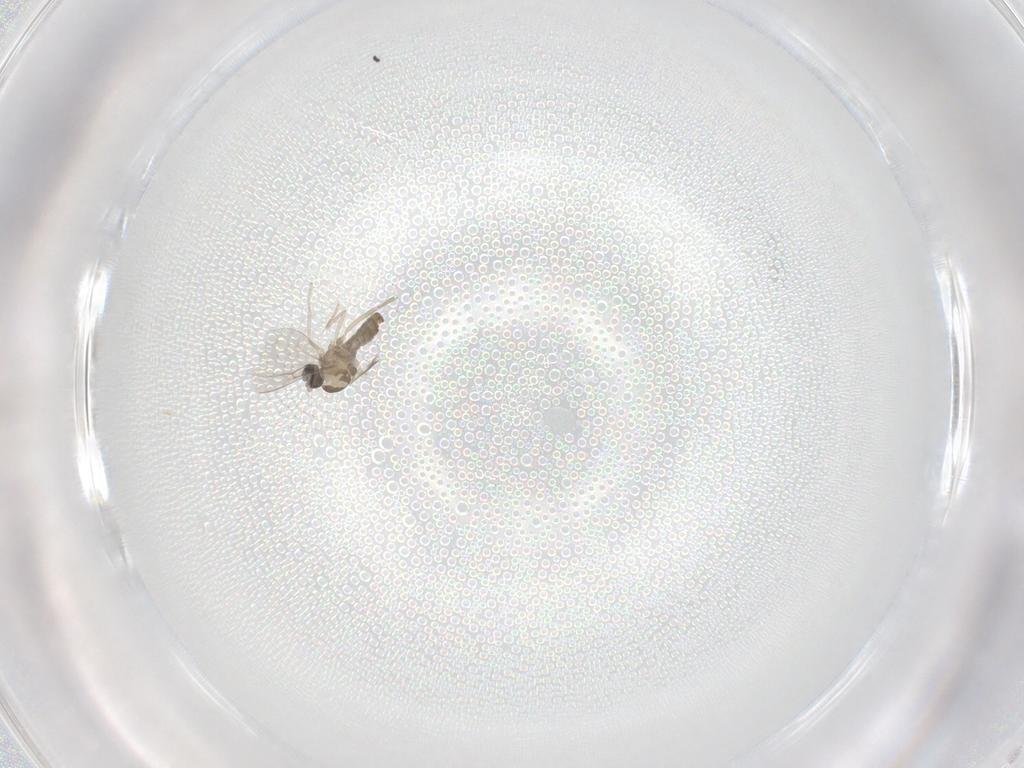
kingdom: Animalia
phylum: Arthropoda
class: Insecta
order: Diptera
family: Cecidomyiidae
